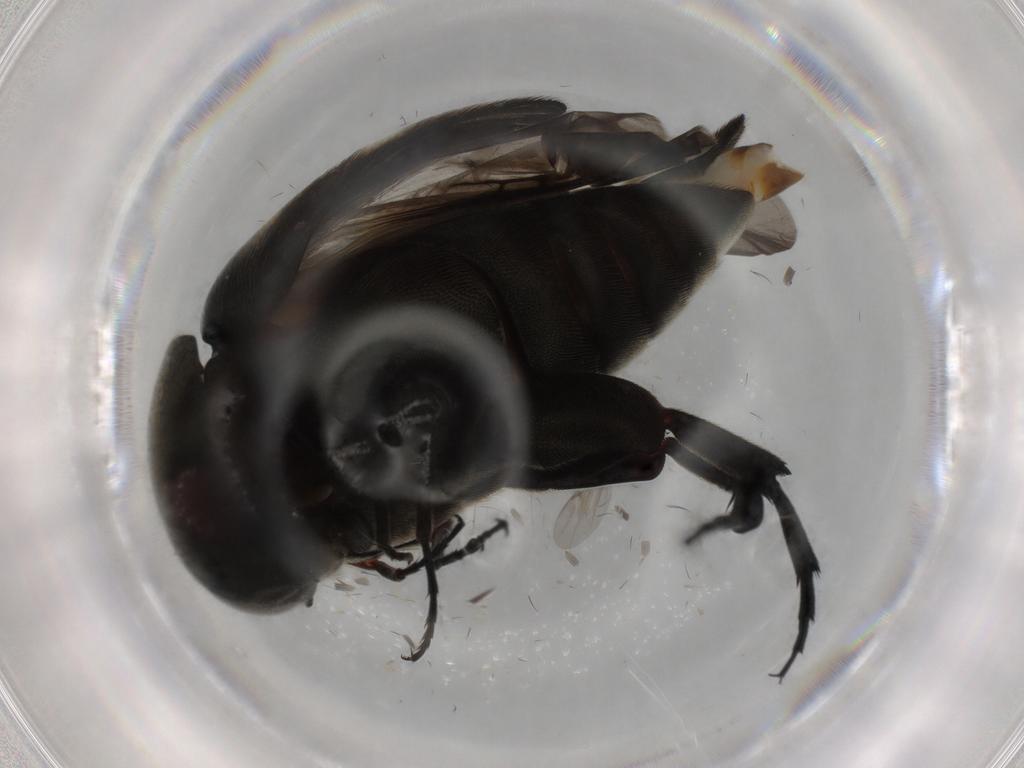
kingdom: Animalia
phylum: Arthropoda
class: Insecta
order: Coleoptera
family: Mordellidae
